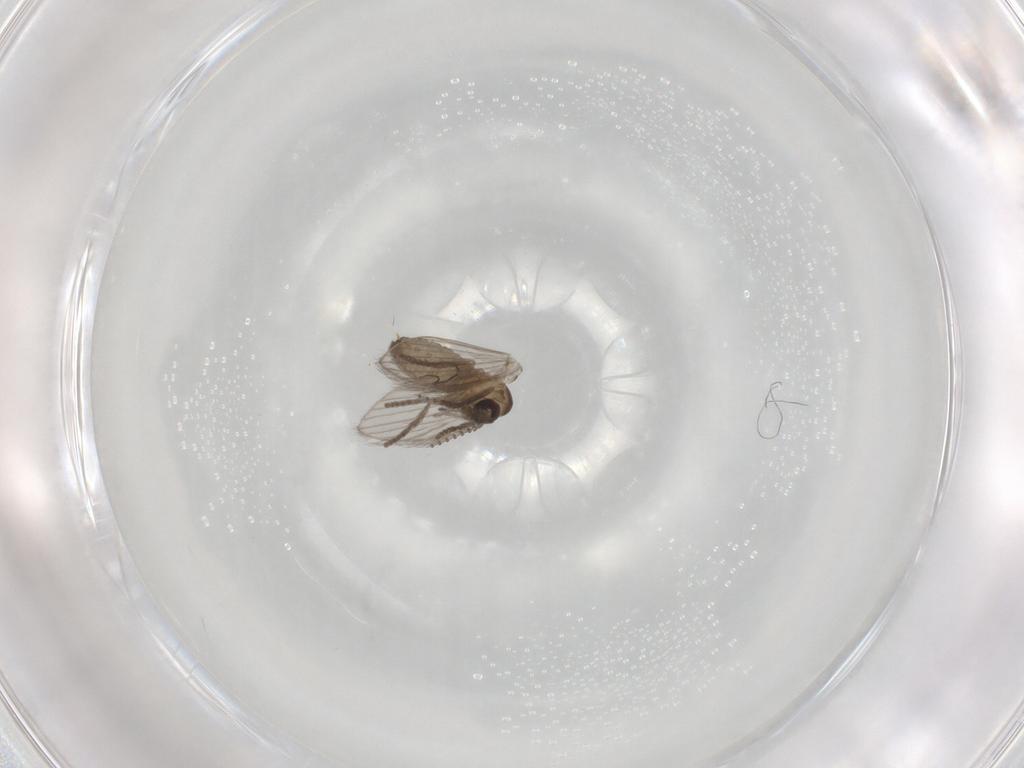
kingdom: Animalia
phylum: Arthropoda
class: Insecta
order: Diptera
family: Psychodidae
